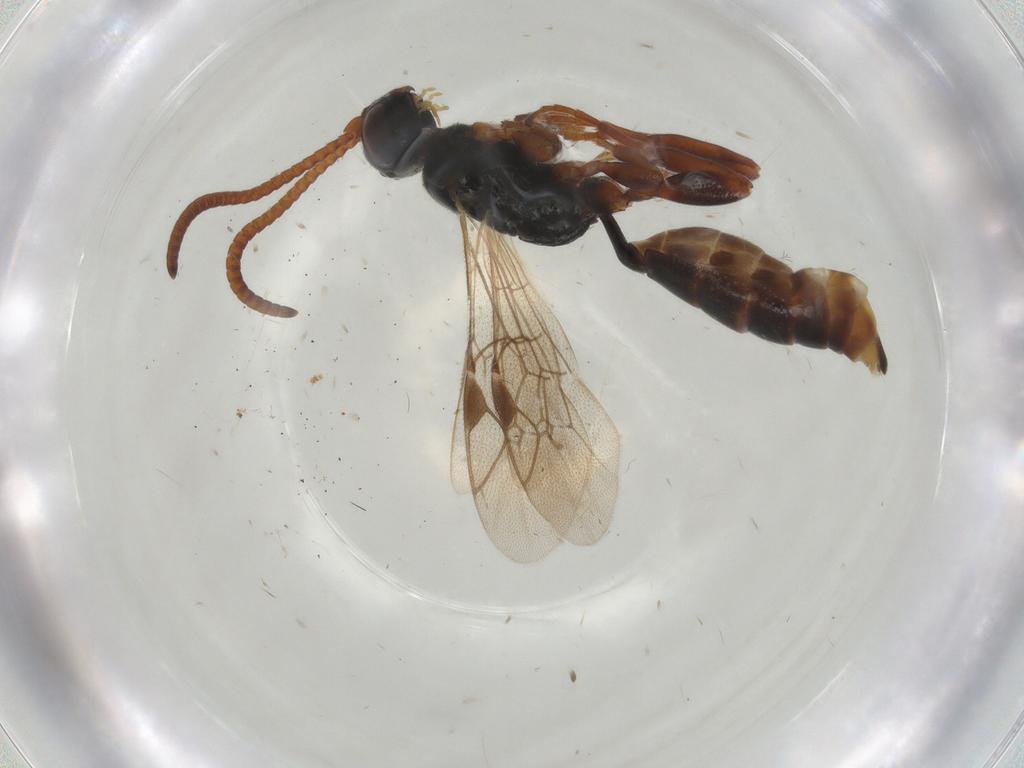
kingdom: Animalia
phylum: Arthropoda
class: Insecta
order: Hymenoptera
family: Ichneumonidae
